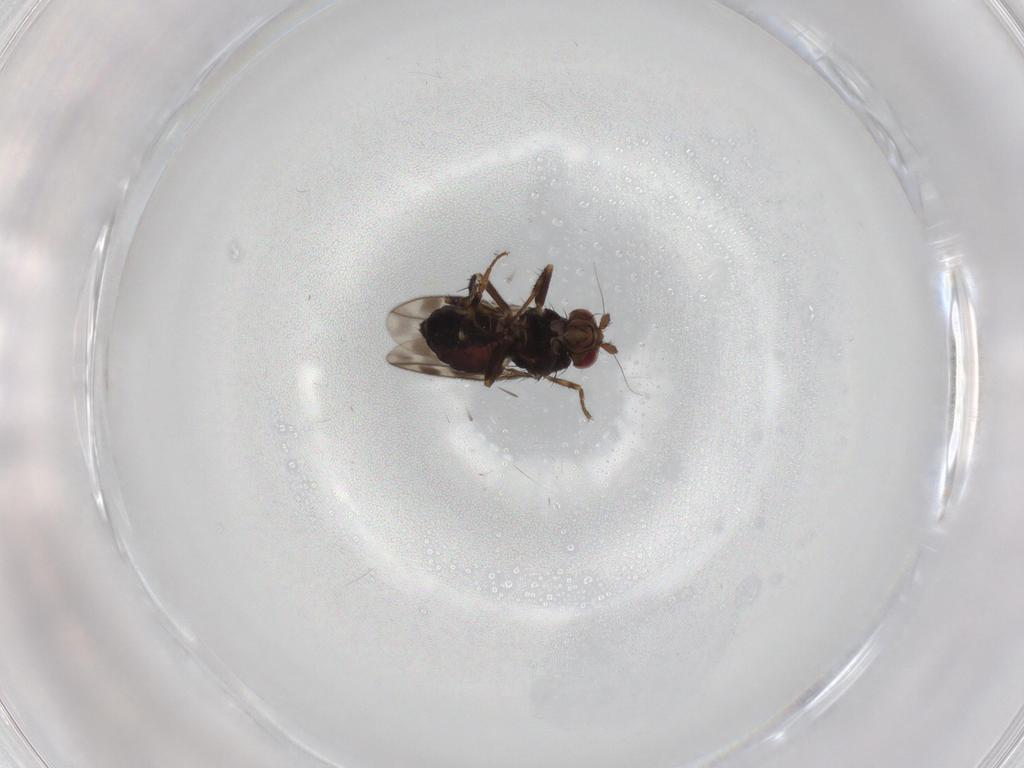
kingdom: Animalia
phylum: Arthropoda
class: Insecta
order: Diptera
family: Sphaeroceridae
